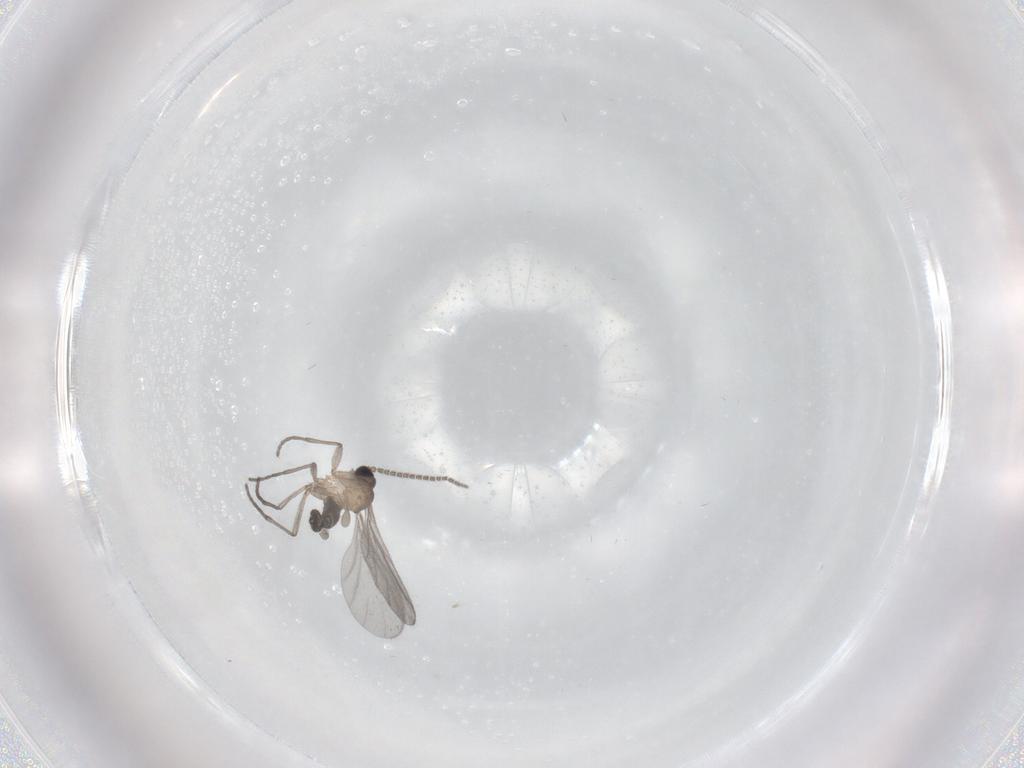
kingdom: Animalia
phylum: Arthropoda
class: Insecta
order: Diptera
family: Sciaridae
